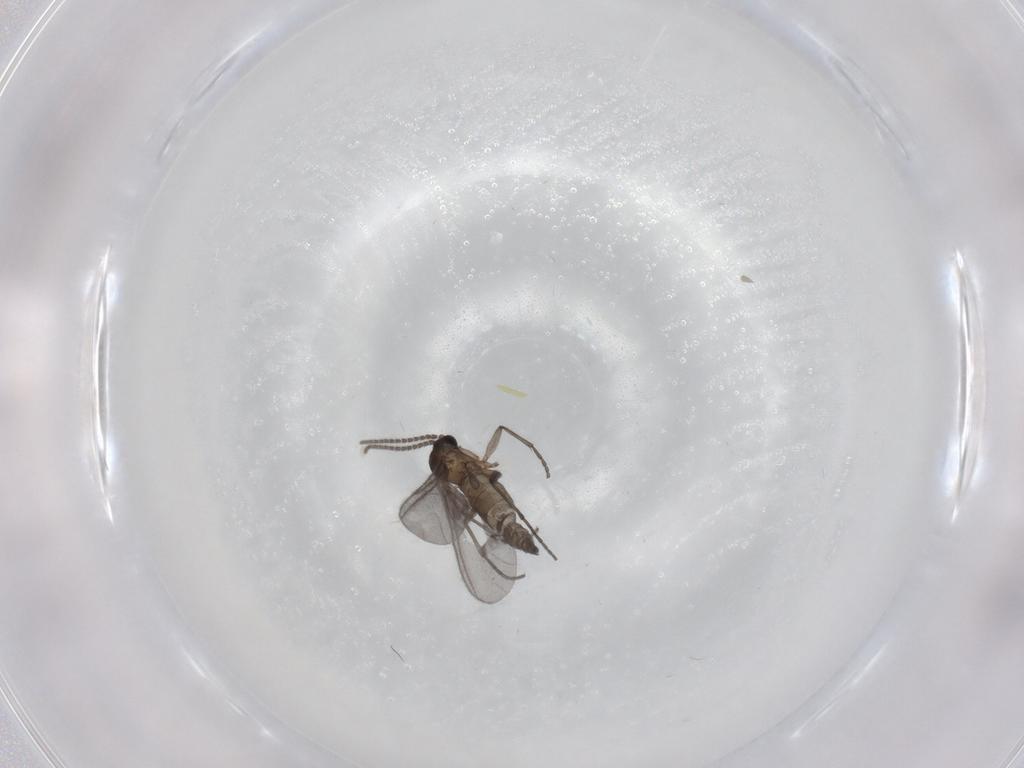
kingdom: Animalia
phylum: Arthropoda
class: Insecta
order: Diptera
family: Sciaridae
